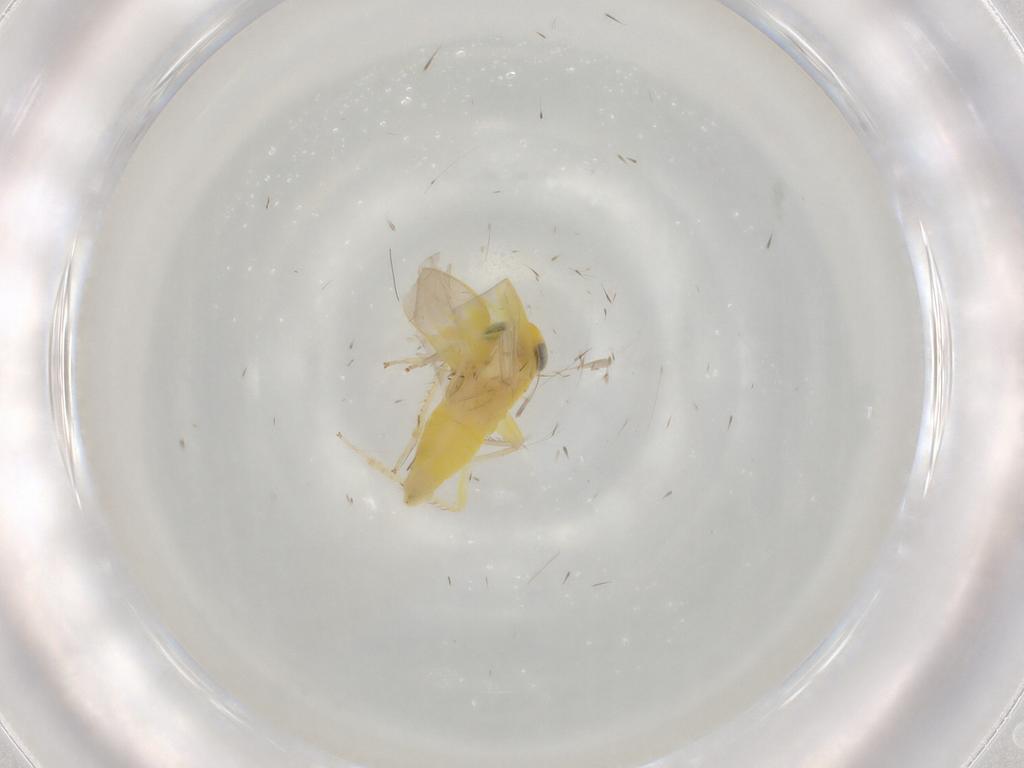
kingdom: Animalia
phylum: Arthropoda
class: Insecta
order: Hemiptera
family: Cicadellidae
